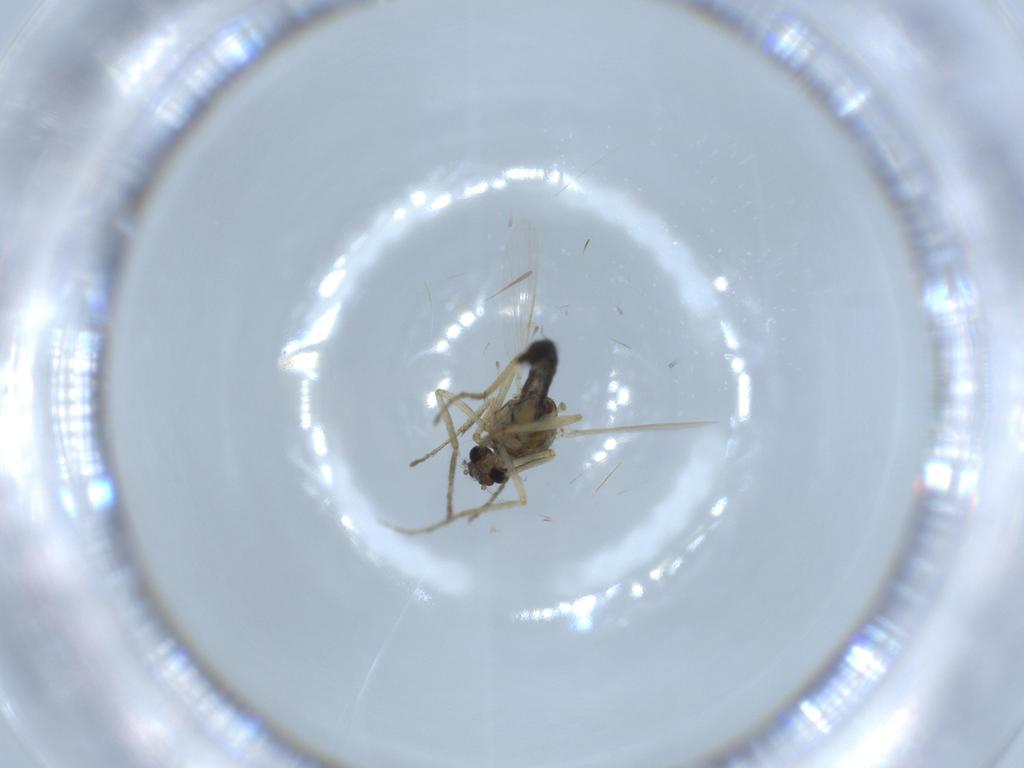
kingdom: Animalia
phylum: Arthropoda
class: Insecta
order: Diptera
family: Ceratopogonidae
